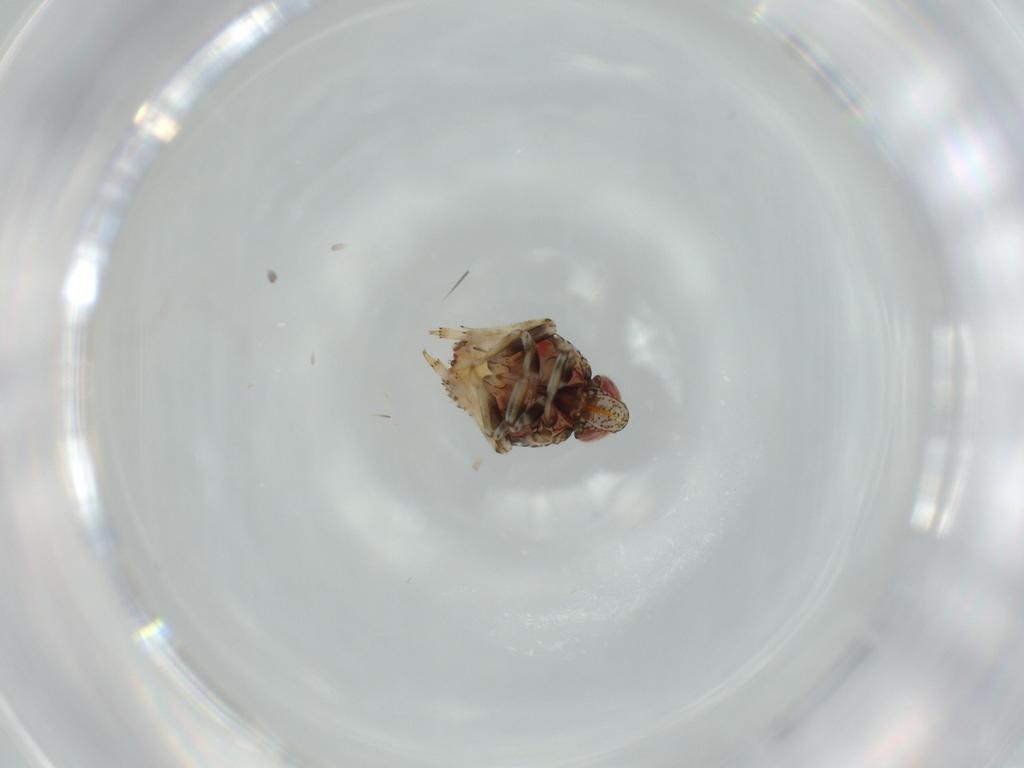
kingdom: Animalia
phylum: Arthropoda
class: Insecta
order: Hemiptera
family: Issidae
